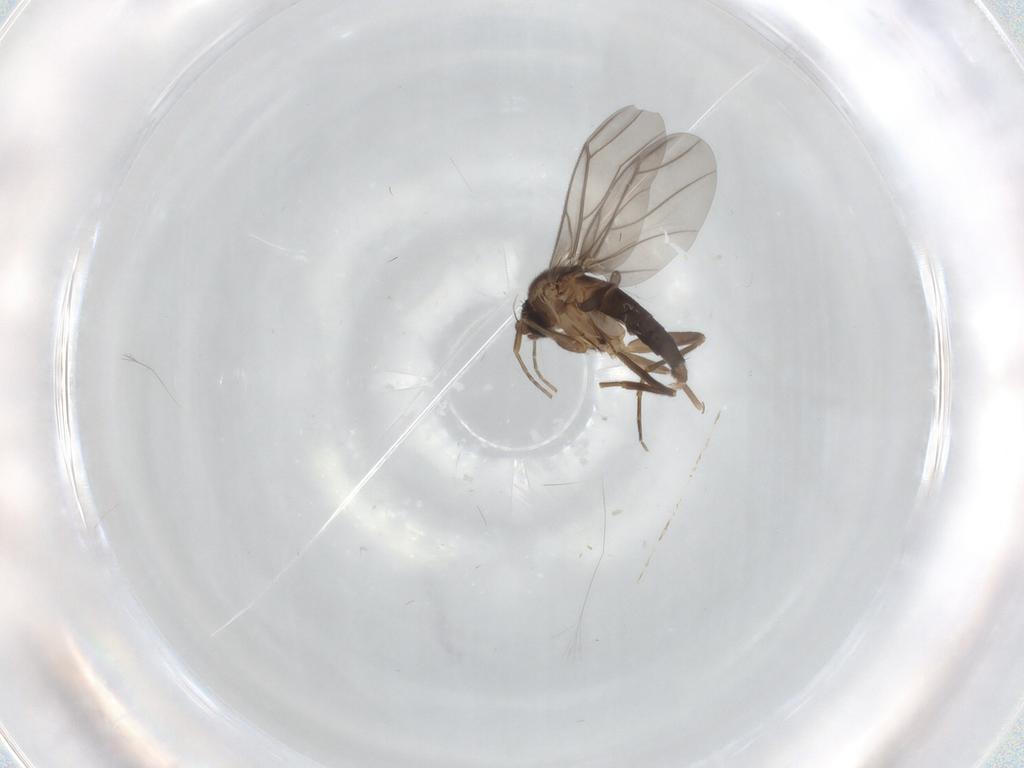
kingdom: Animalia
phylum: Arthropoda
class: Insecta
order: Diptera
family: Cecidomyiidae
